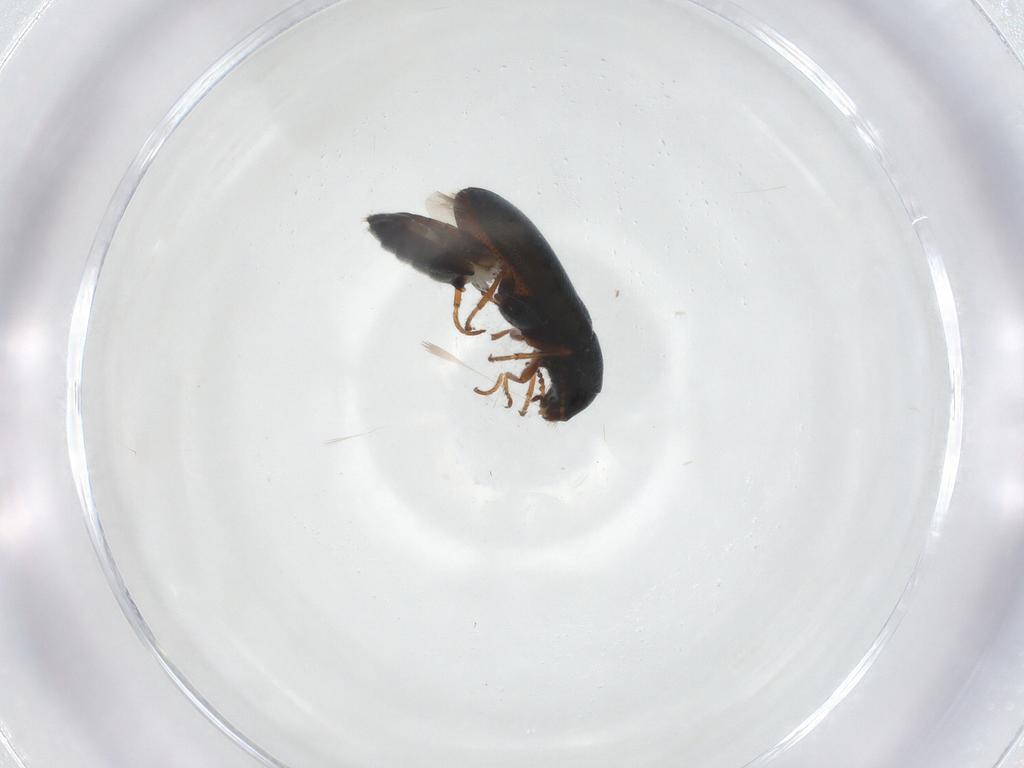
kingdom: Animalia
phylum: Arthropoda
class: Insecta
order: Coleoptera
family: Melyridae
